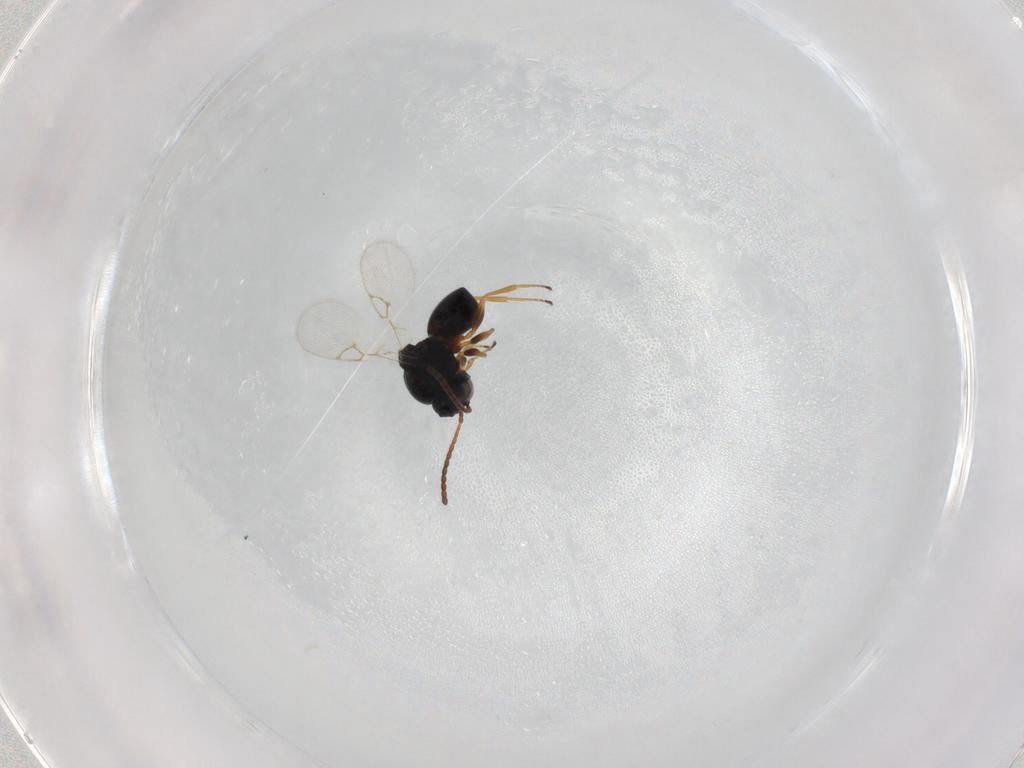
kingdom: Animalia
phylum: Arthropoda
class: Insecta
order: Hymenoptera
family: Figitidae
